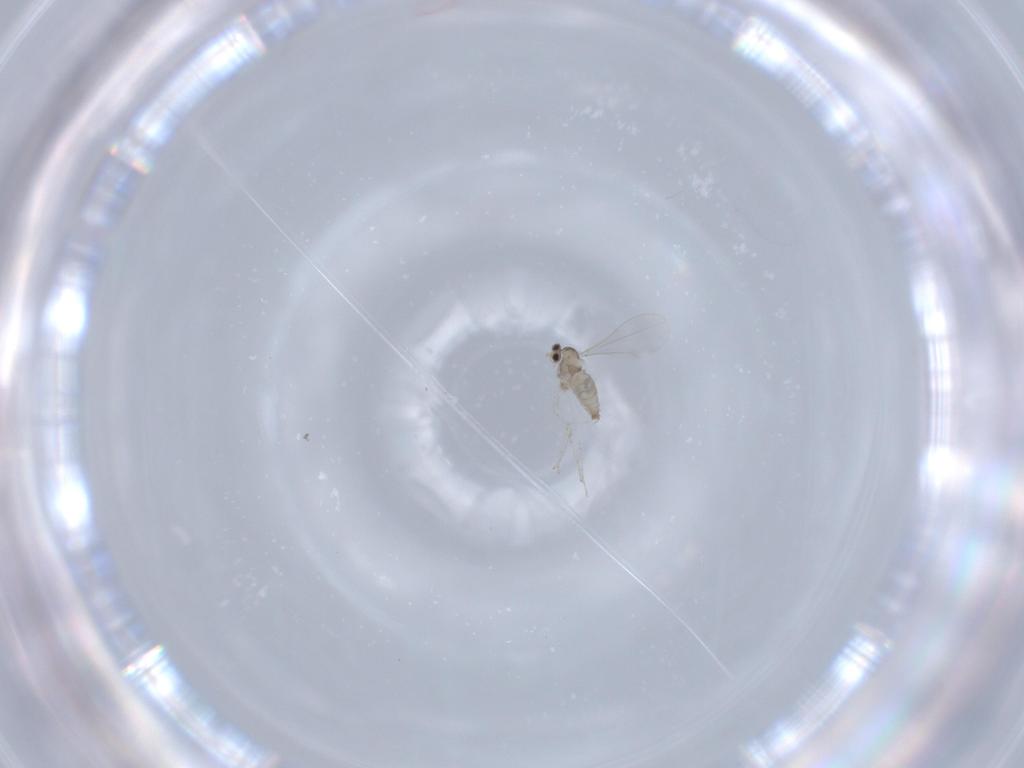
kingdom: Animalia
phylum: Arthropoda
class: Insecta
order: Diptera
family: Cecidomyiidae
